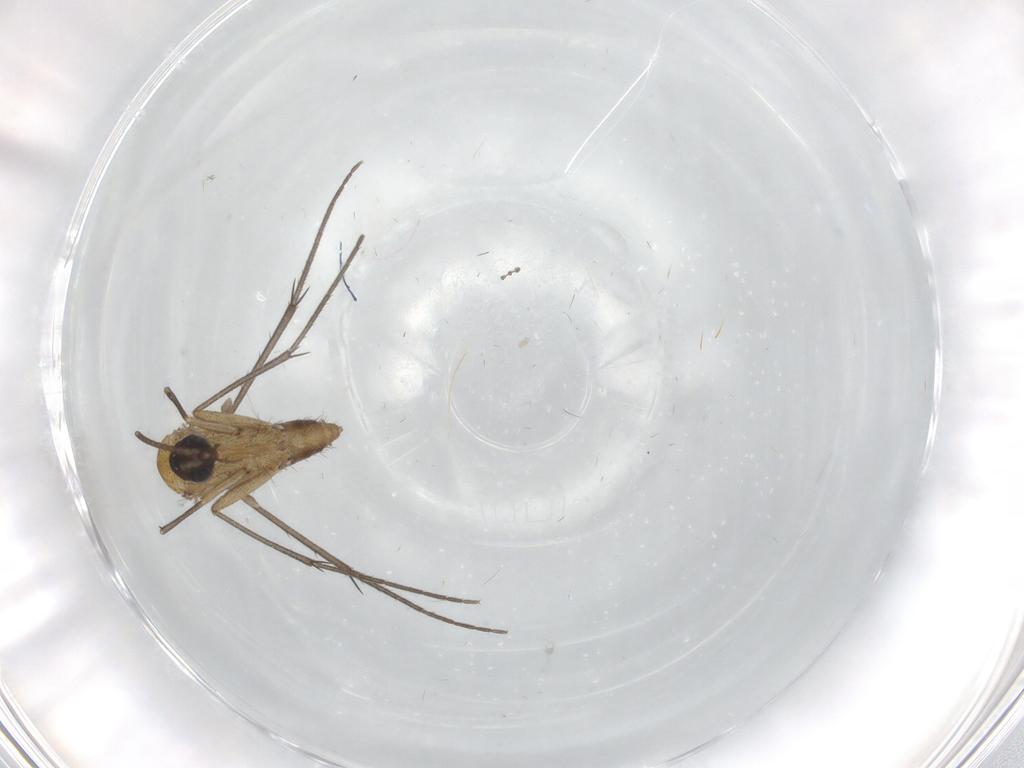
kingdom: Animalia
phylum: Arthropoda
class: Insecta
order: Diptera
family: Mycetophilidae
